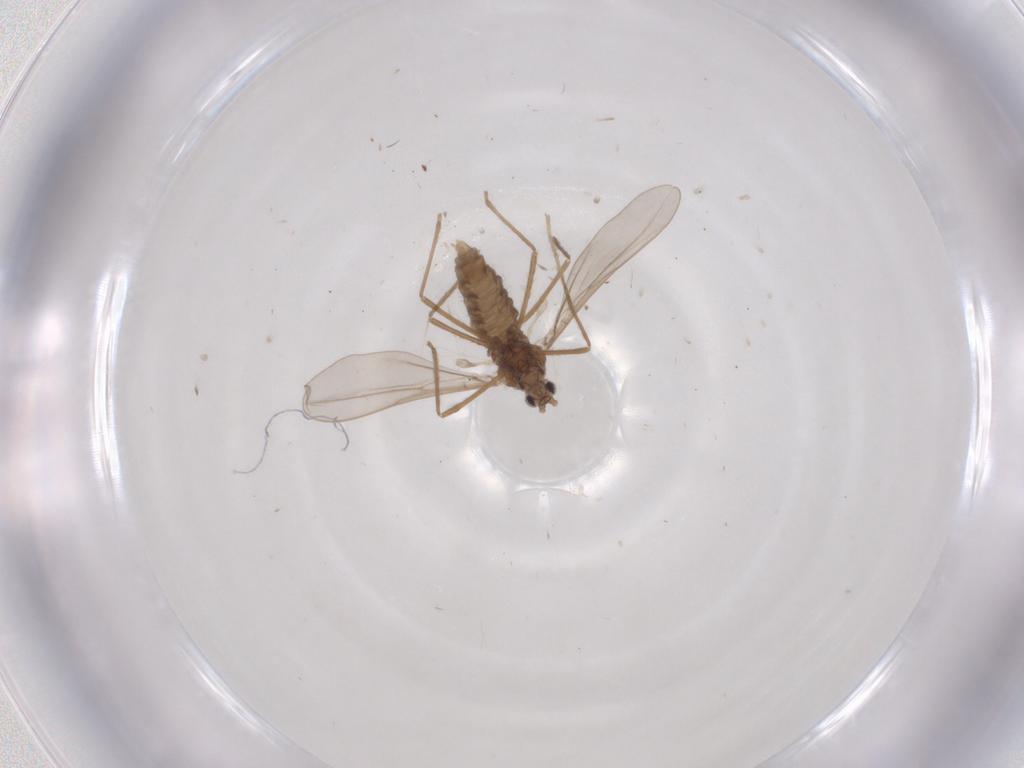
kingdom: Animalia
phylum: Arthropoda
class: Insecta
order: Diptera
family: Cecidomyiidae
